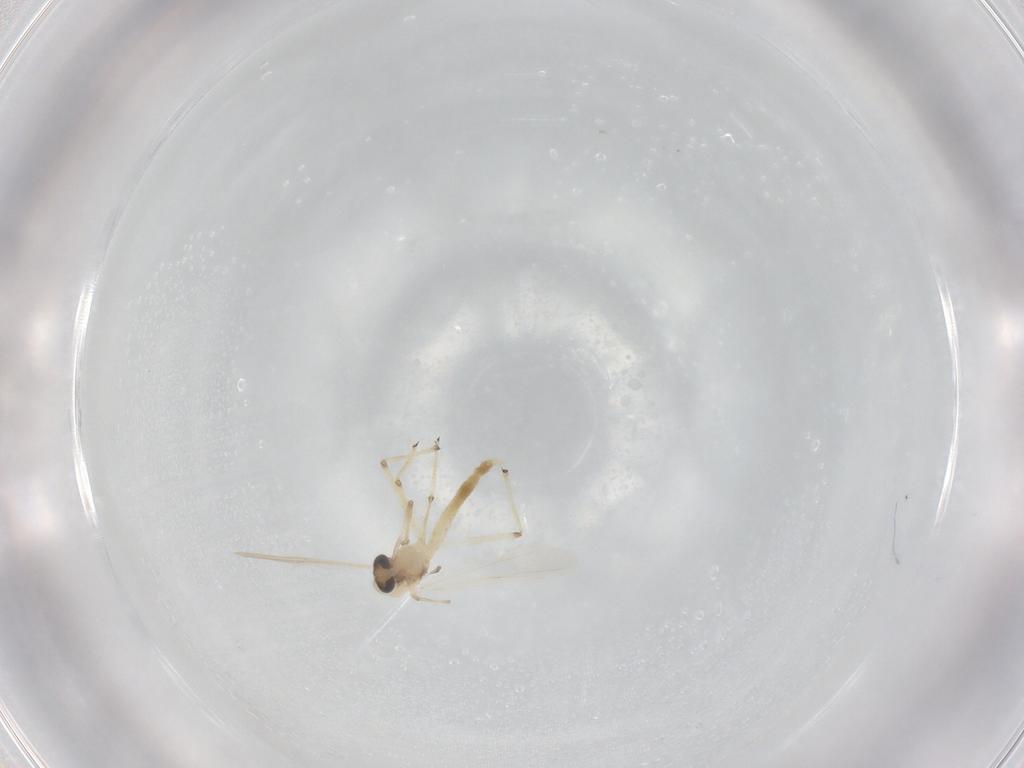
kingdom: Animalia
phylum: Arthropoda
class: Insecta
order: Diptera
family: Chironomidae
